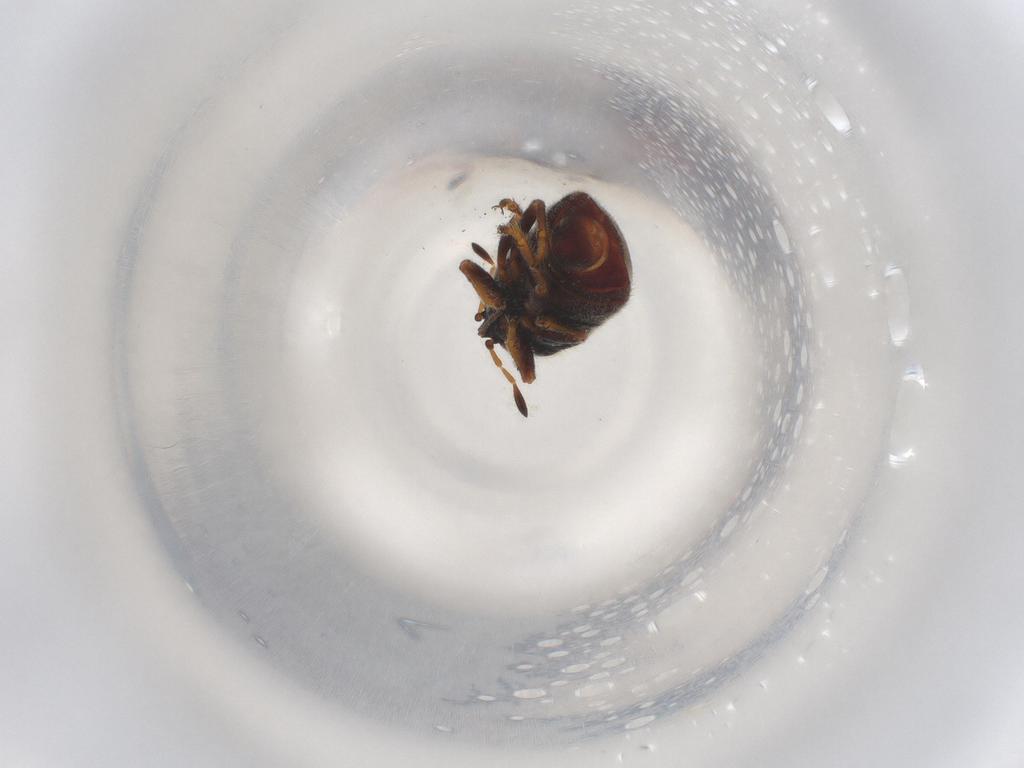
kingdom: Animalia
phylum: Arthropoda
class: Insecta
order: Coleoptera
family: Chrysomelidae
